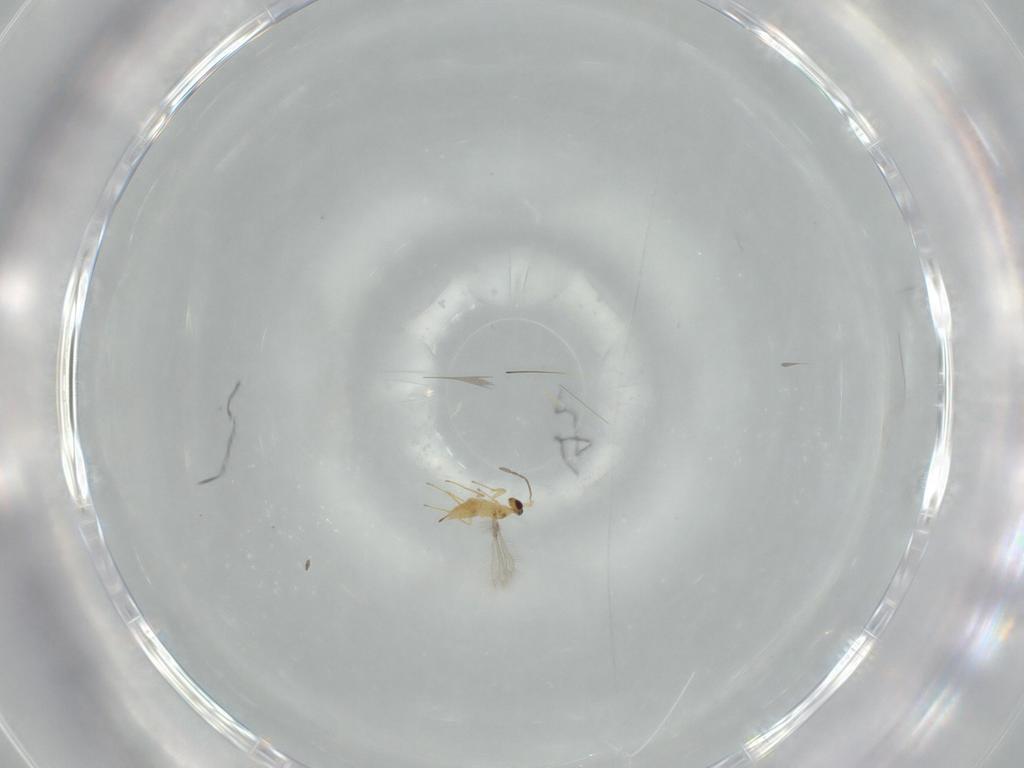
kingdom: Animalia
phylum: Arthropoda
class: Insecta
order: Hymenoptera
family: Mymaridae
